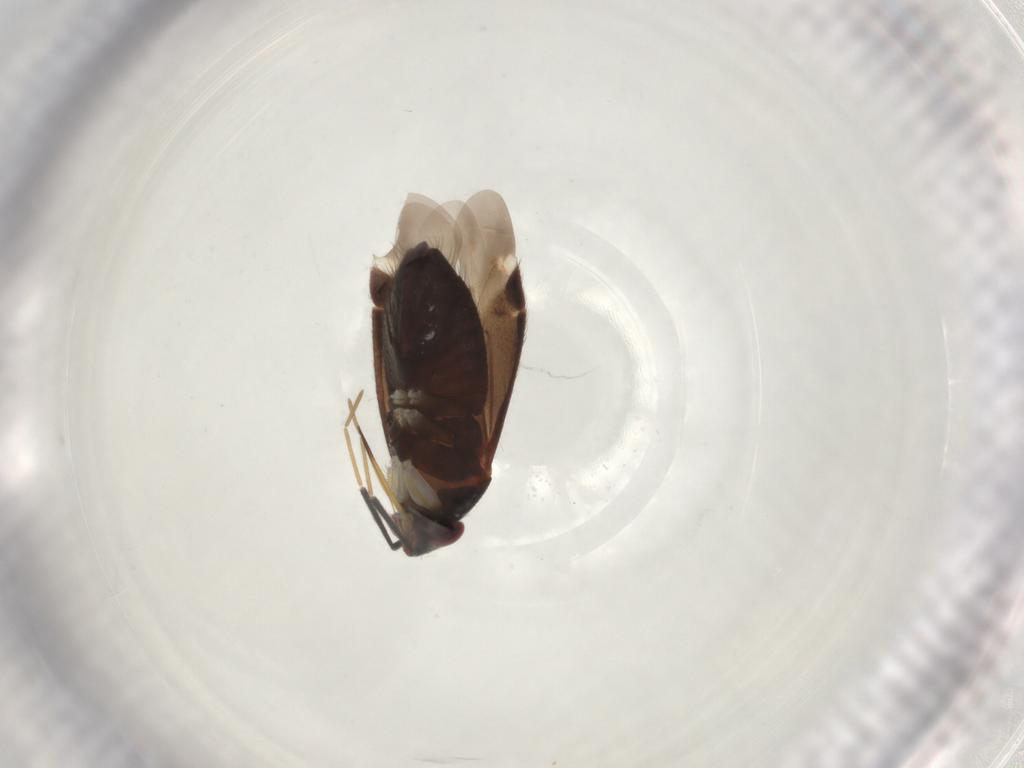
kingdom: Animalia
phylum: Arthropoda
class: Insecta
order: Hemiptera
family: Miridae
